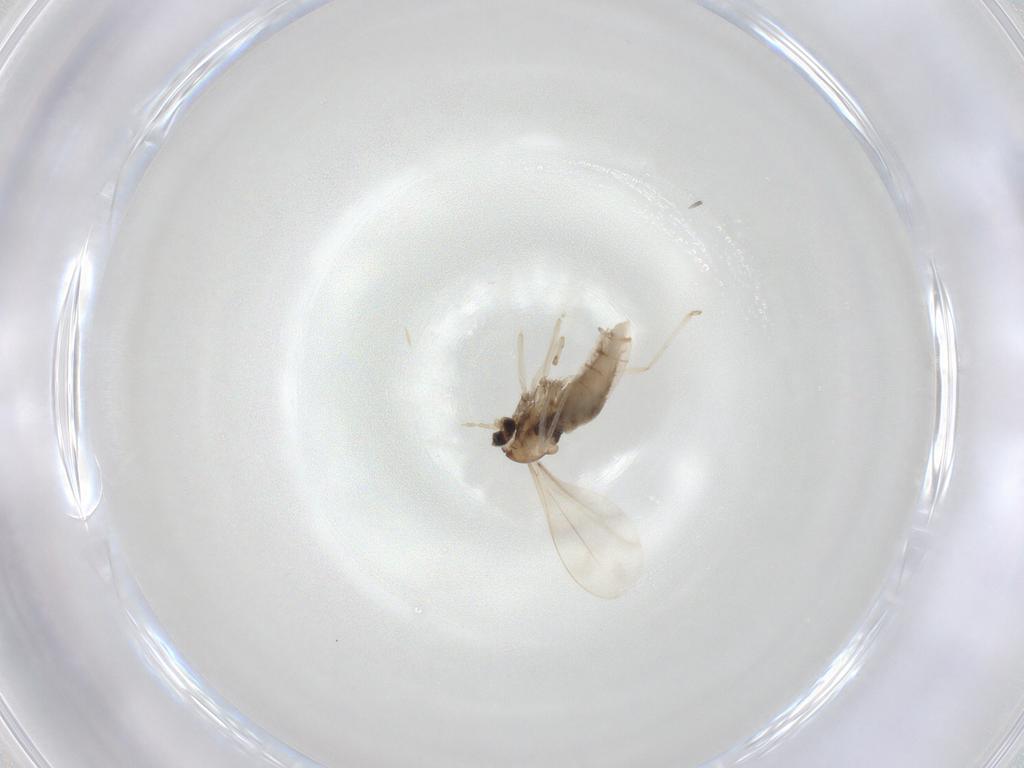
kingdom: Animalia
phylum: Arthropoda
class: Insecta
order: Diptera
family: Cecidomyiidae
